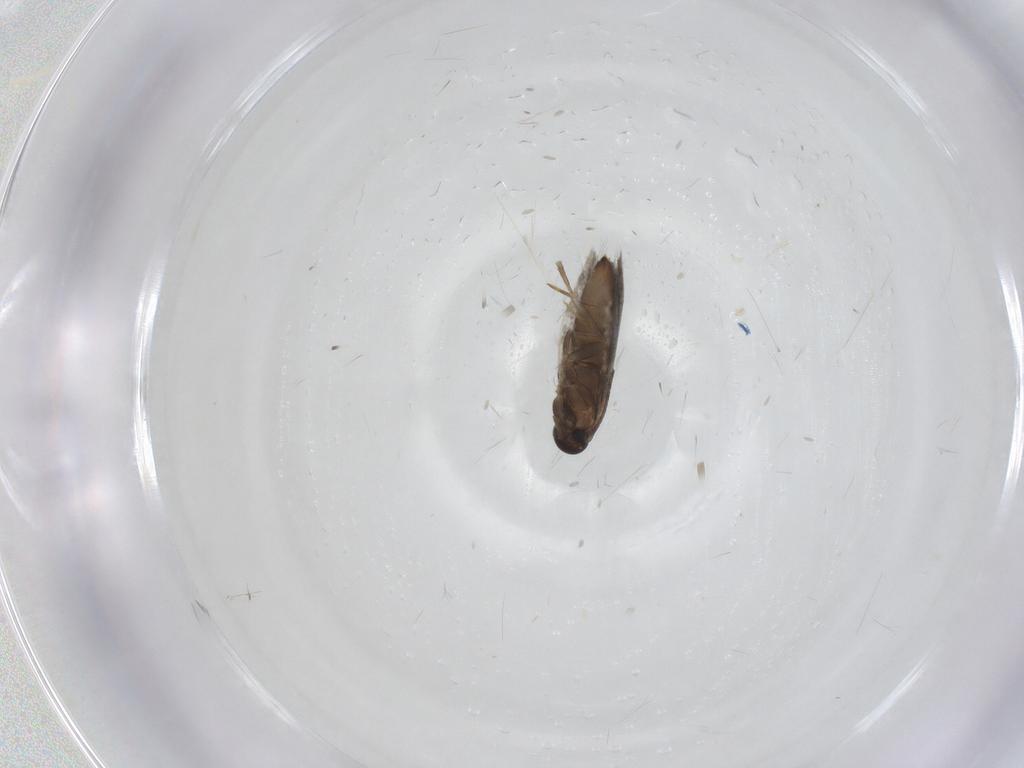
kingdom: Animalia
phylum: Arthropoda
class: Insecta
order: Lepidoptera
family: Heliozelidae
